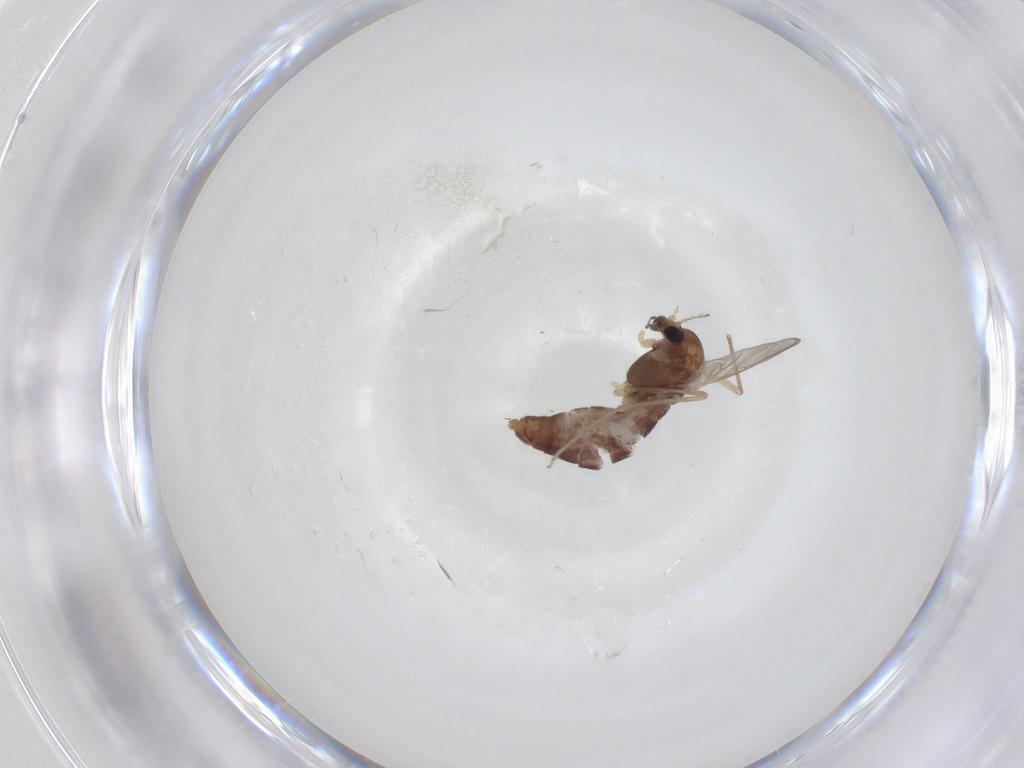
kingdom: Animalia
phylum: Arthropoda
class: Insecta
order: Diptera
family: Chironomidae
